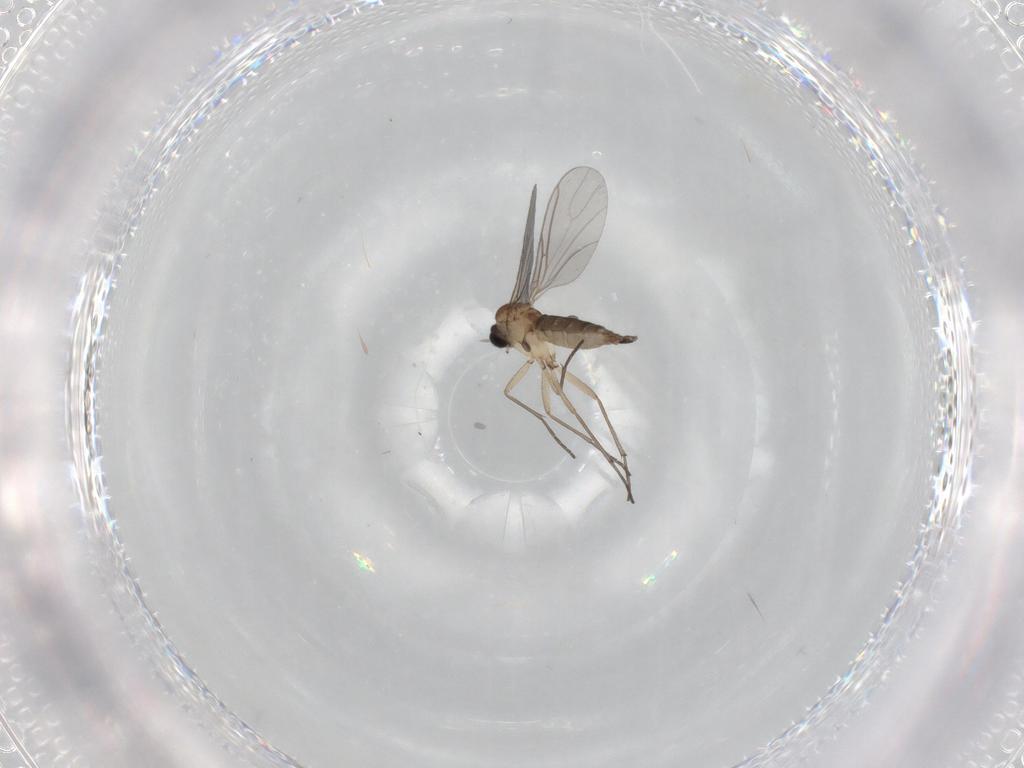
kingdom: Animalia
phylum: Arthropoda
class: Insecta
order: Diptera
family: Sciaridae
